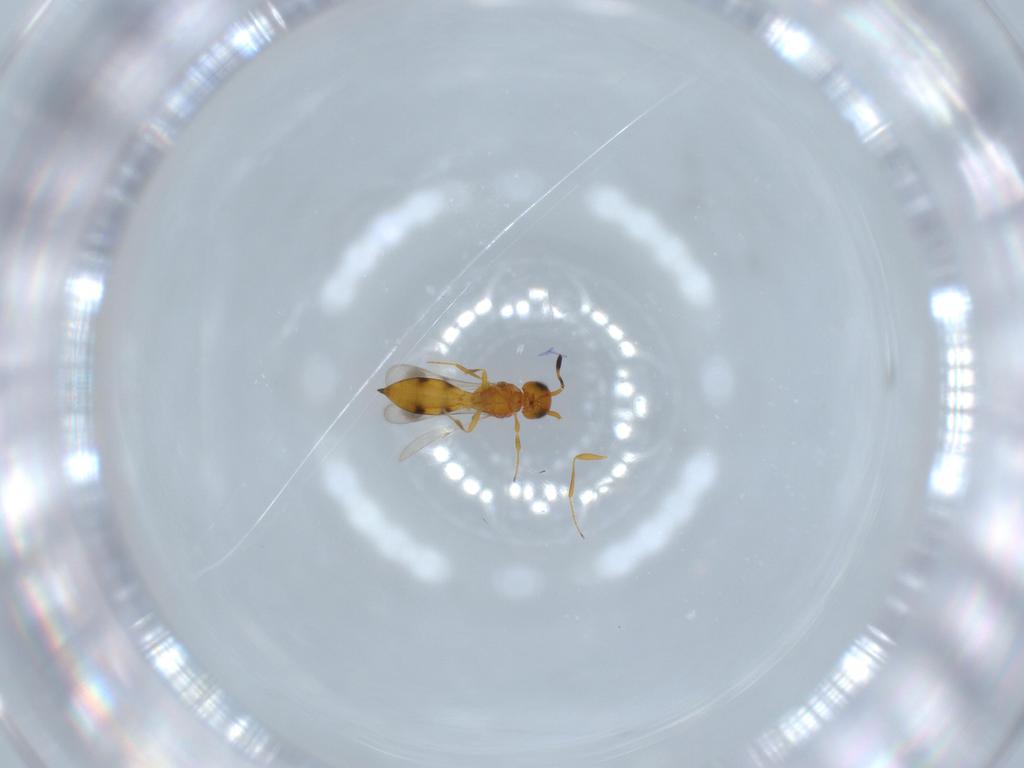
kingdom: Animalia
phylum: Arthropoda
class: Insecta
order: Hymenoptera
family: Scelionidae
